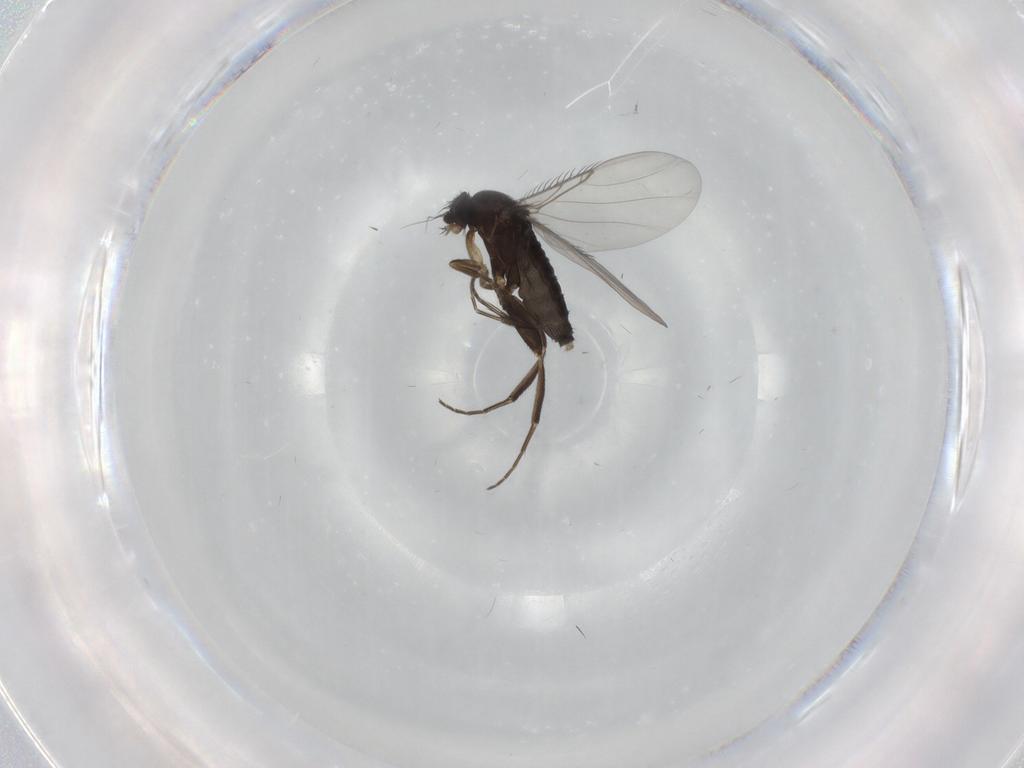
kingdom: Animalia
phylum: Arthropoda
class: Insecta
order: Diptera
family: Phoridae
